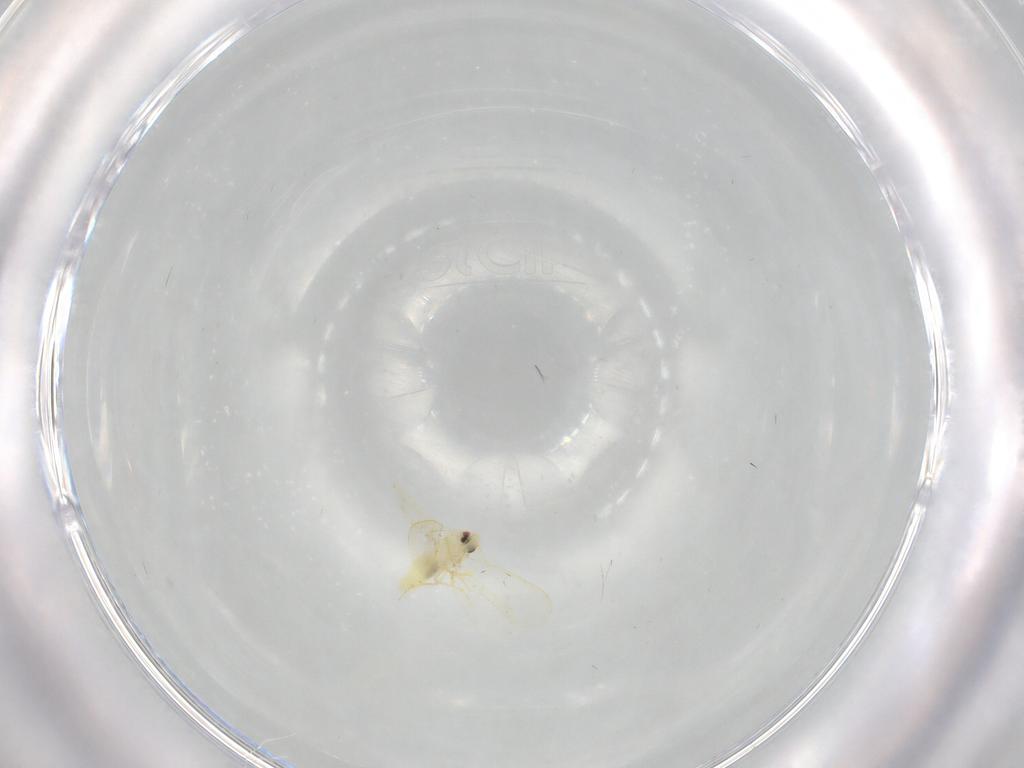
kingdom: Animalia
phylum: Arthropoda
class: Insecta
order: Hemiptera
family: Aleyrodidae
